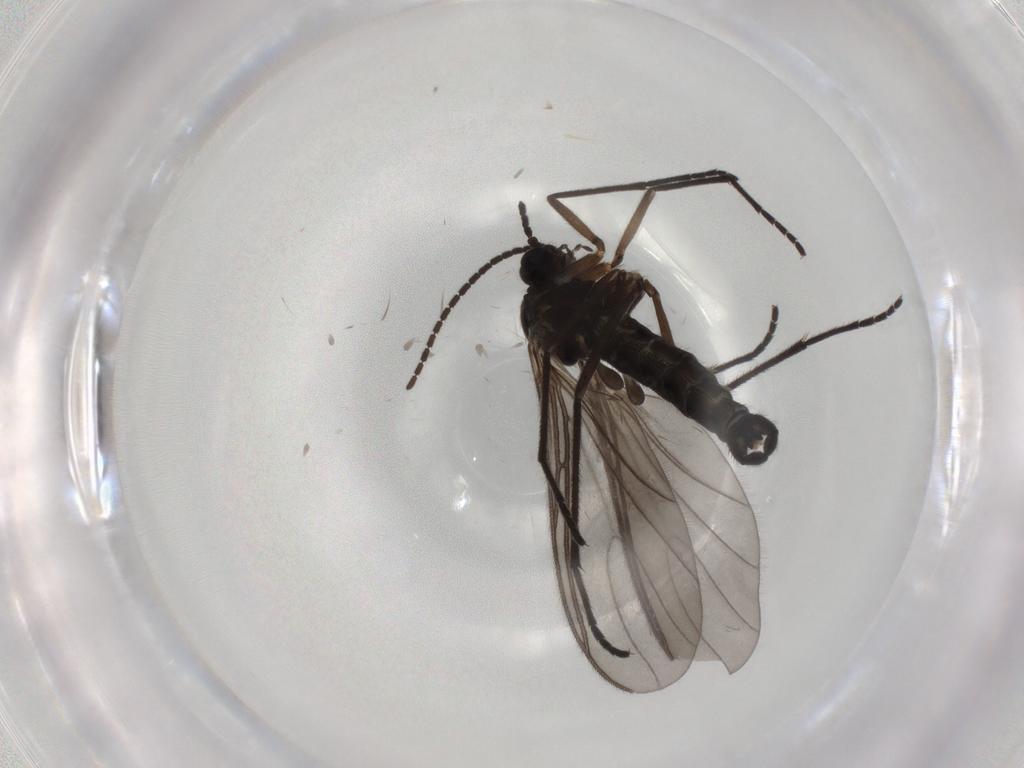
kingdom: Animalia
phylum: Arthropoda
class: Insecta
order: Diptera
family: Sciaridae
